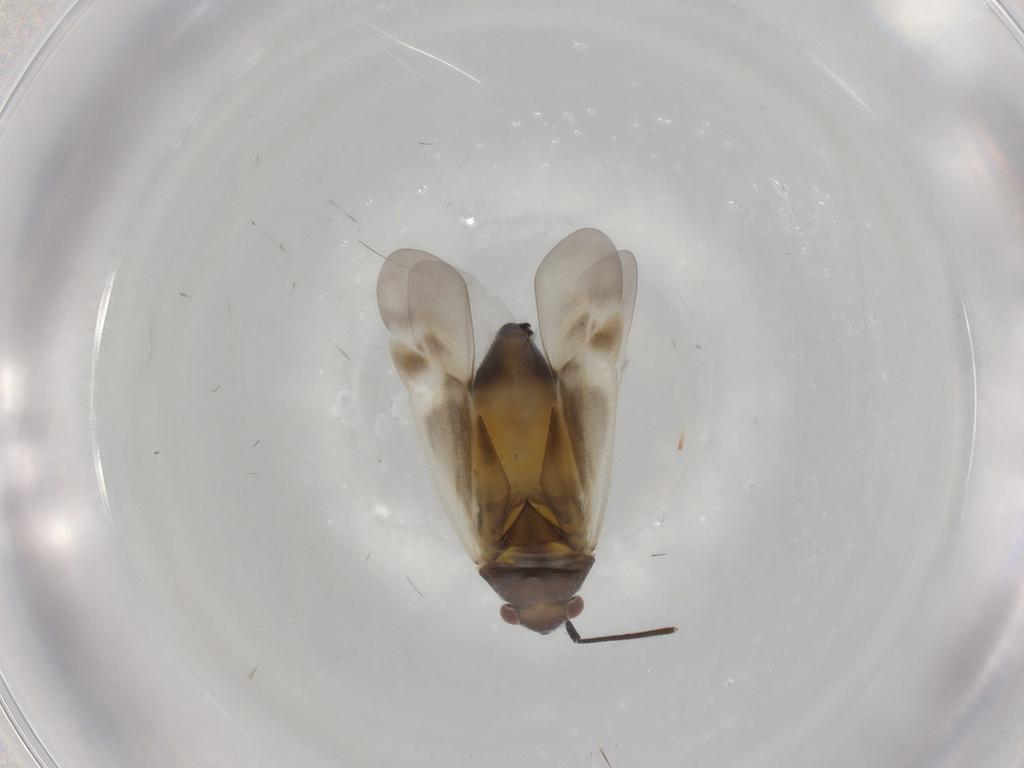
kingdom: Animalia
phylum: Arthropoda
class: Insecta
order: Hemiptera
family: Miridae
